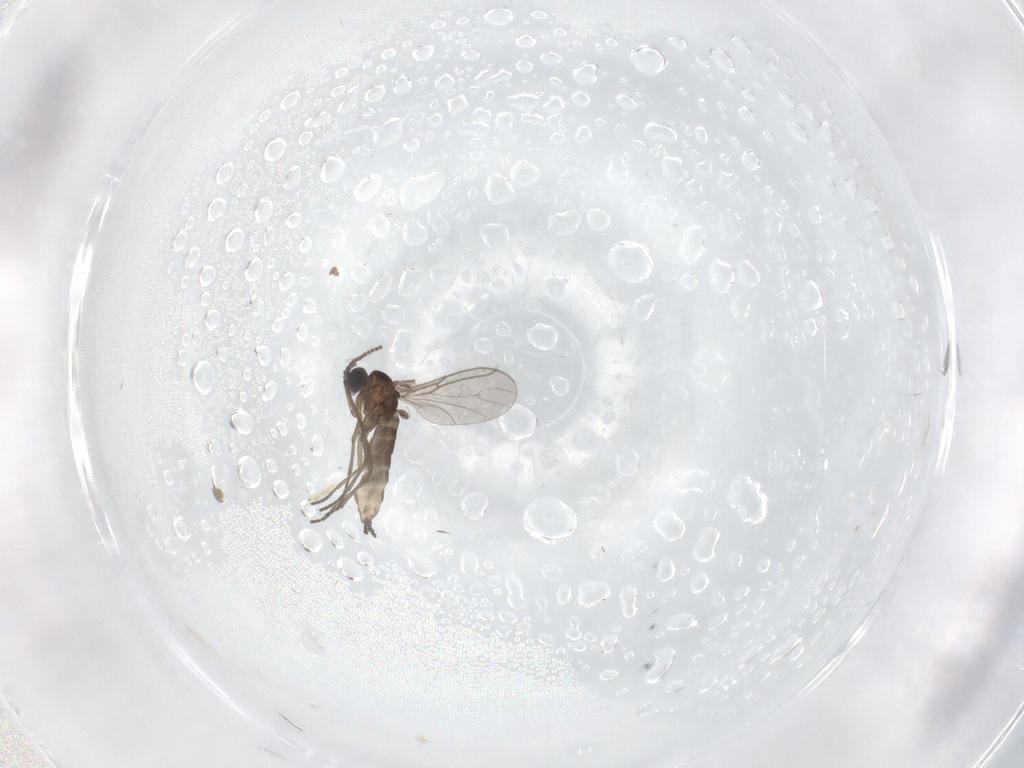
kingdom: Animalia
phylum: Arthropoda
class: Insecta
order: Diptera
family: Sciaridae
